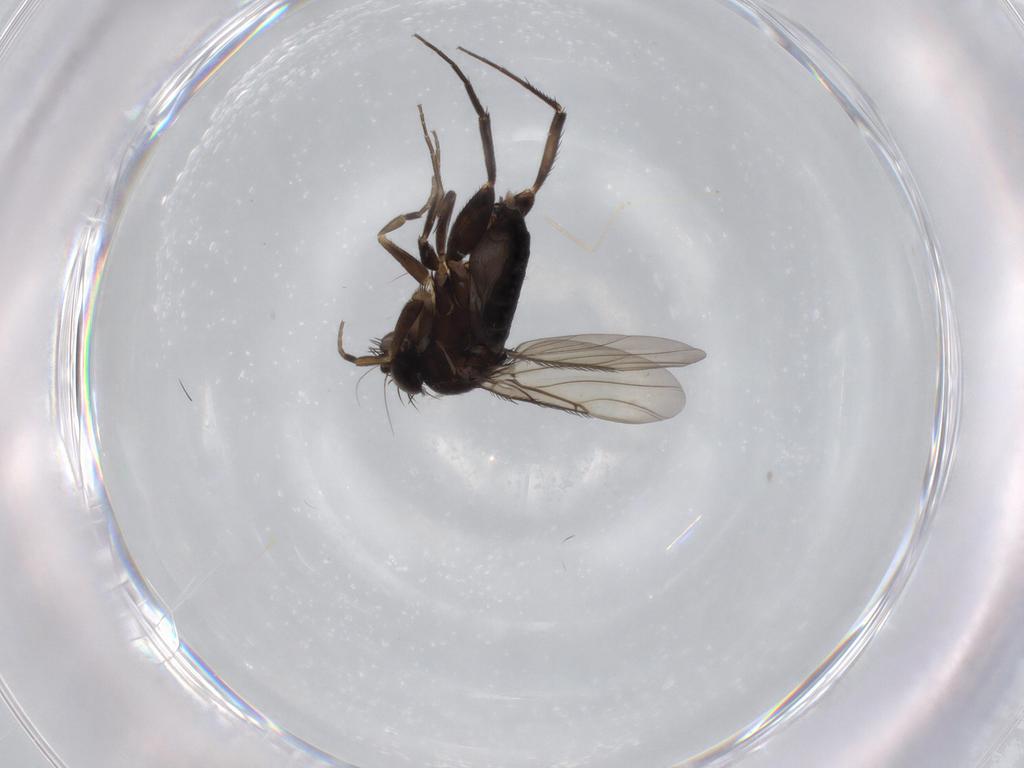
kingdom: Animalia
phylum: Arthropoda
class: Insecta
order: Diptera
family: Phoridae
